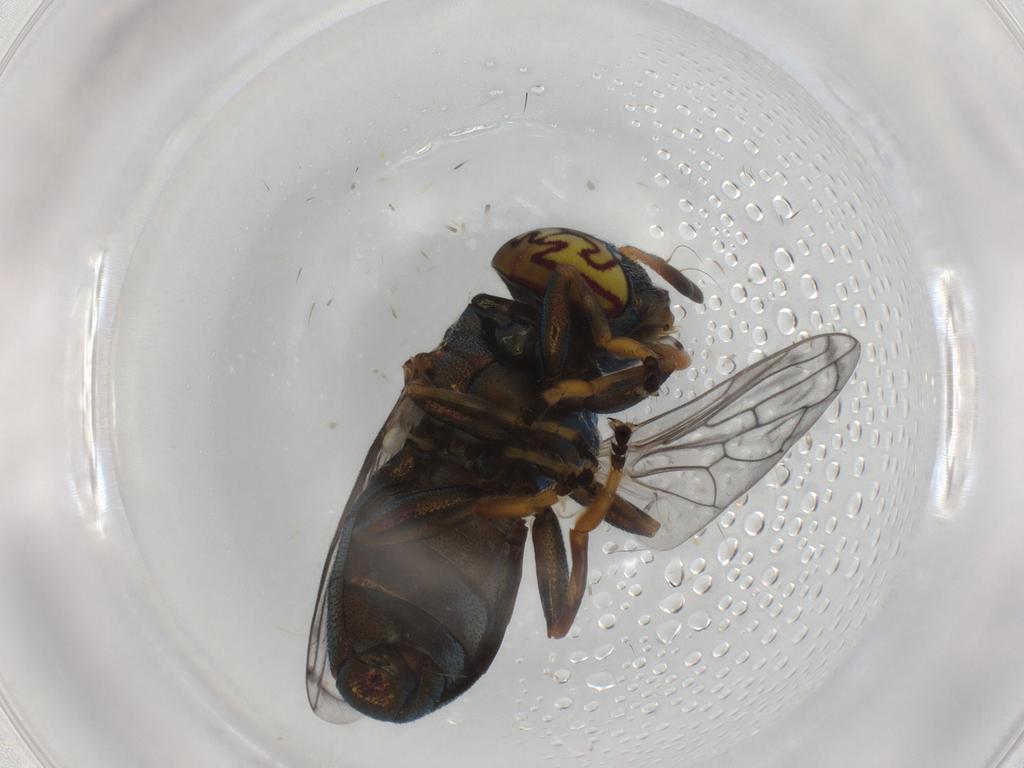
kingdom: Animalia
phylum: Arthropoda
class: Insecta
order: Diptera
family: Syrphidae
